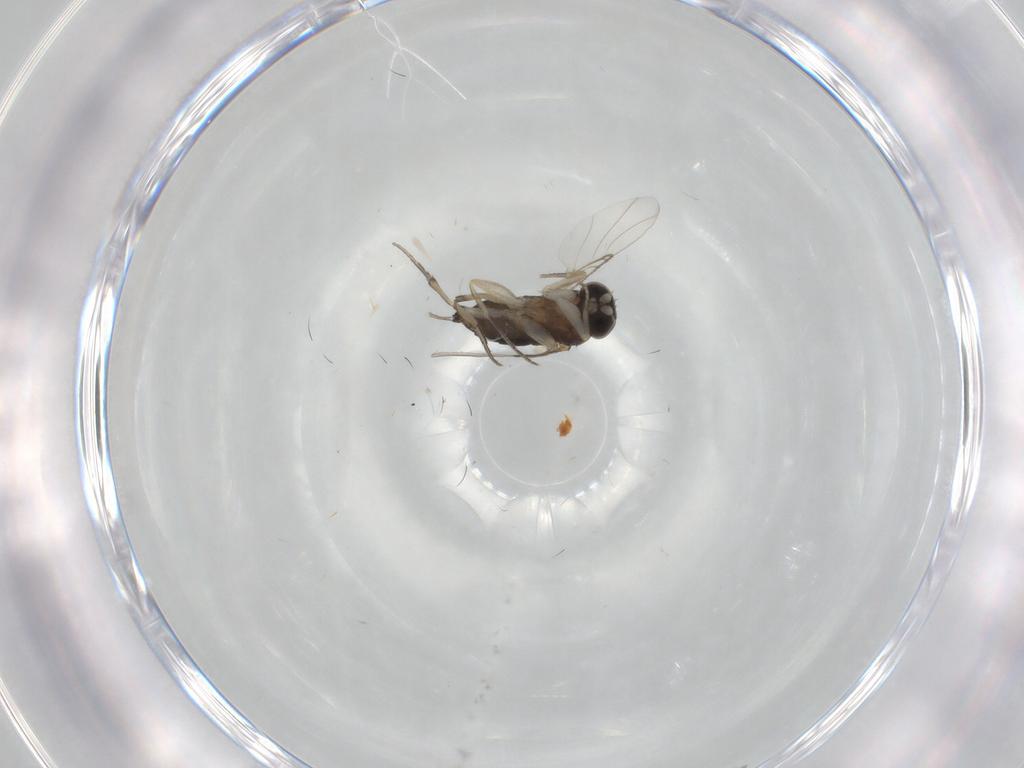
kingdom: Animalia
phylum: Arthropoda
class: Insecta
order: Diptera
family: Phoridae
